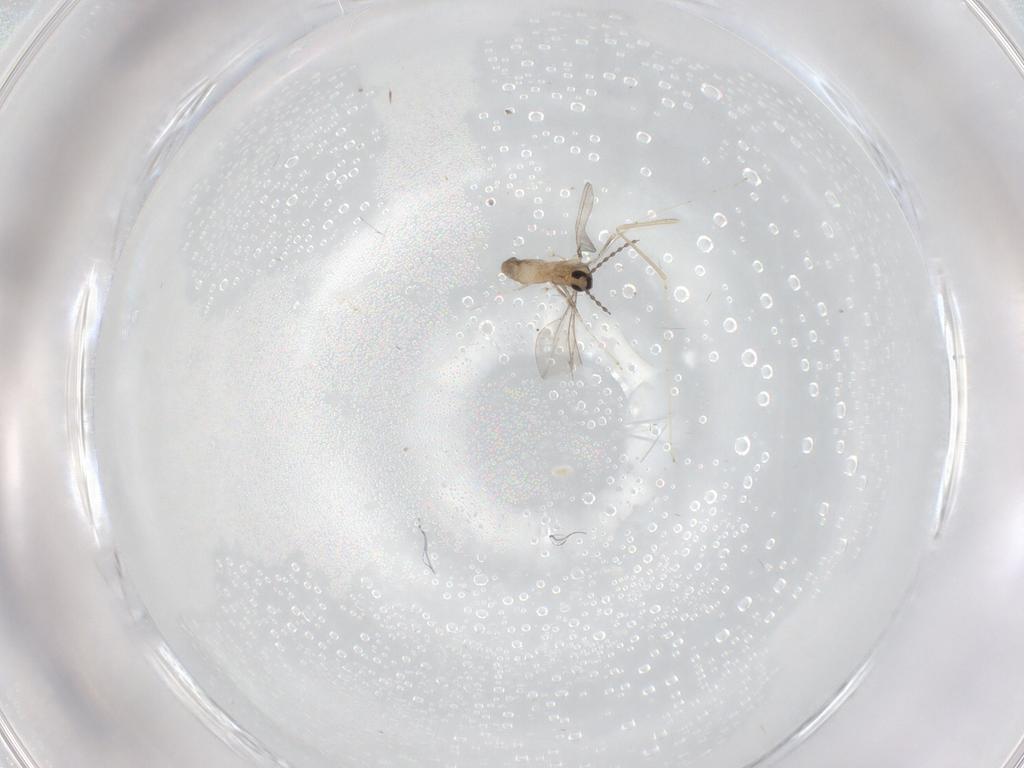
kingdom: Animalia
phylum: Arthropoda
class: Insecta
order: Diptera
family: Cecidomyiidae
